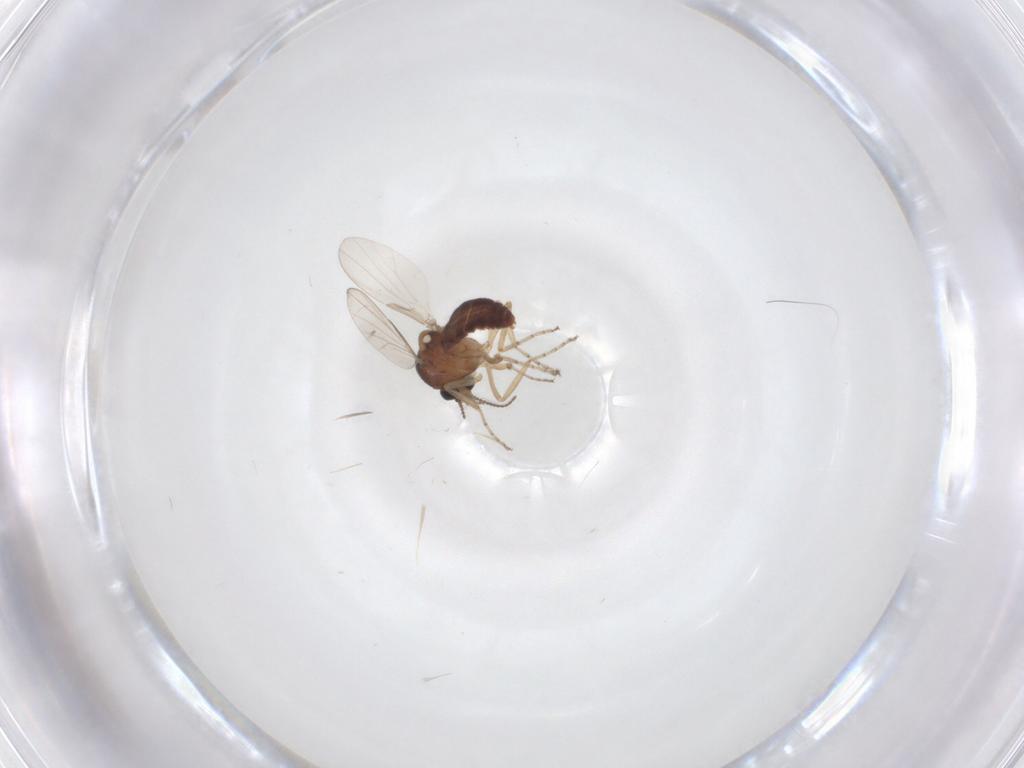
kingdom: Animalia
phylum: Arthropoda
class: Insecta
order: Diptera
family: Ceratopogonidae
